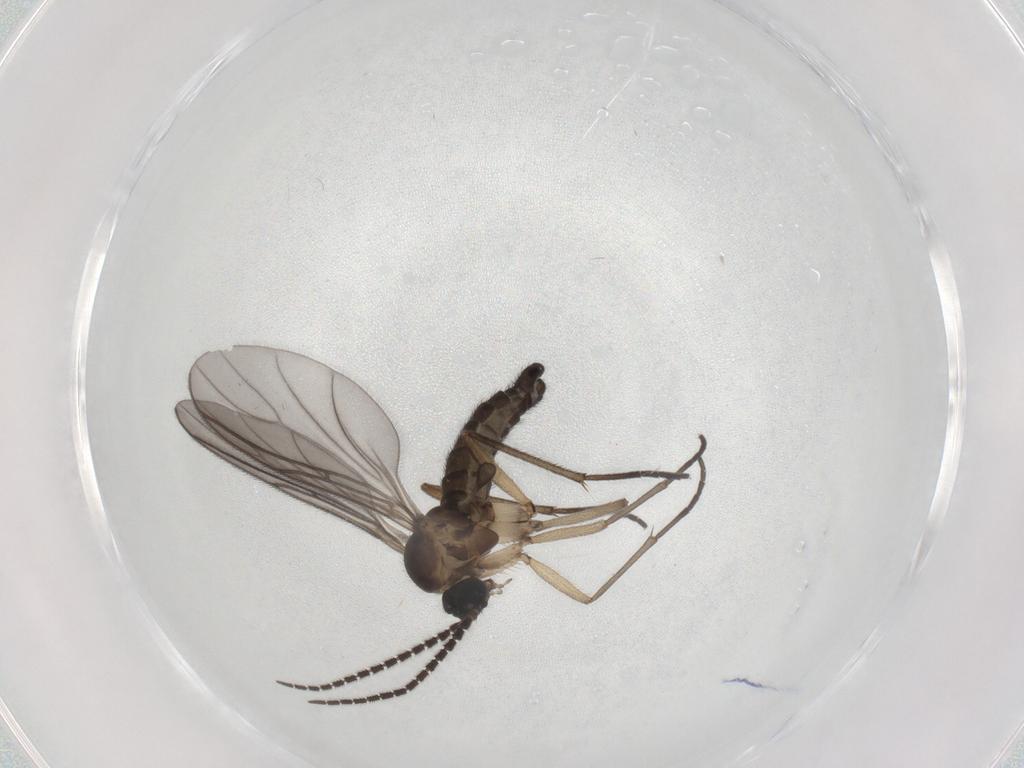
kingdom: Animalia
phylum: Arthropoda
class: Insecta
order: Diptera
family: Sciaridae
